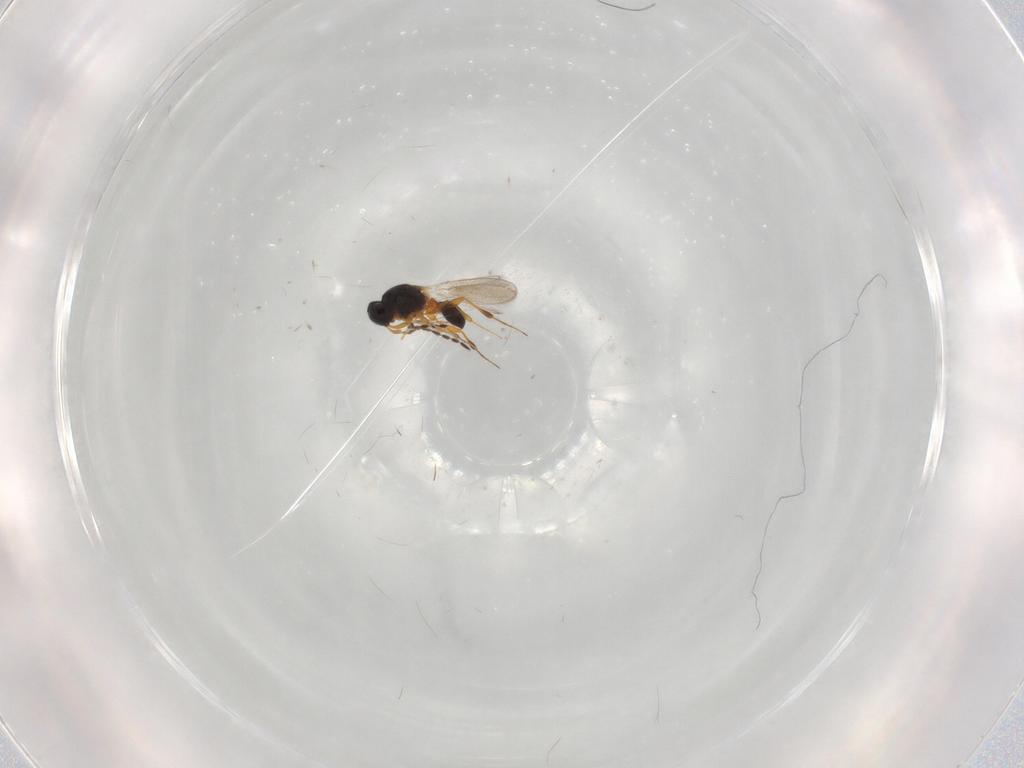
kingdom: Animalia
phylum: Arthropoda
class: Insecta
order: Hymenoptera
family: Platygastridae
